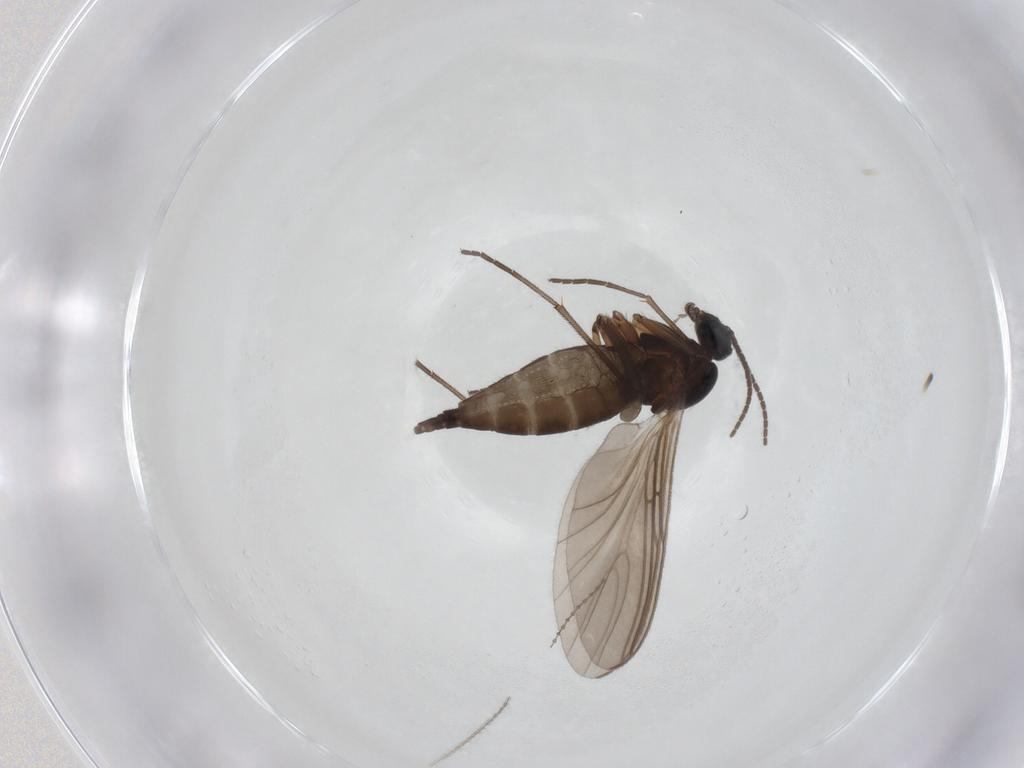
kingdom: Animalia
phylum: Arthropoda
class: Insecta
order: Diptera
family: Sciaridae
